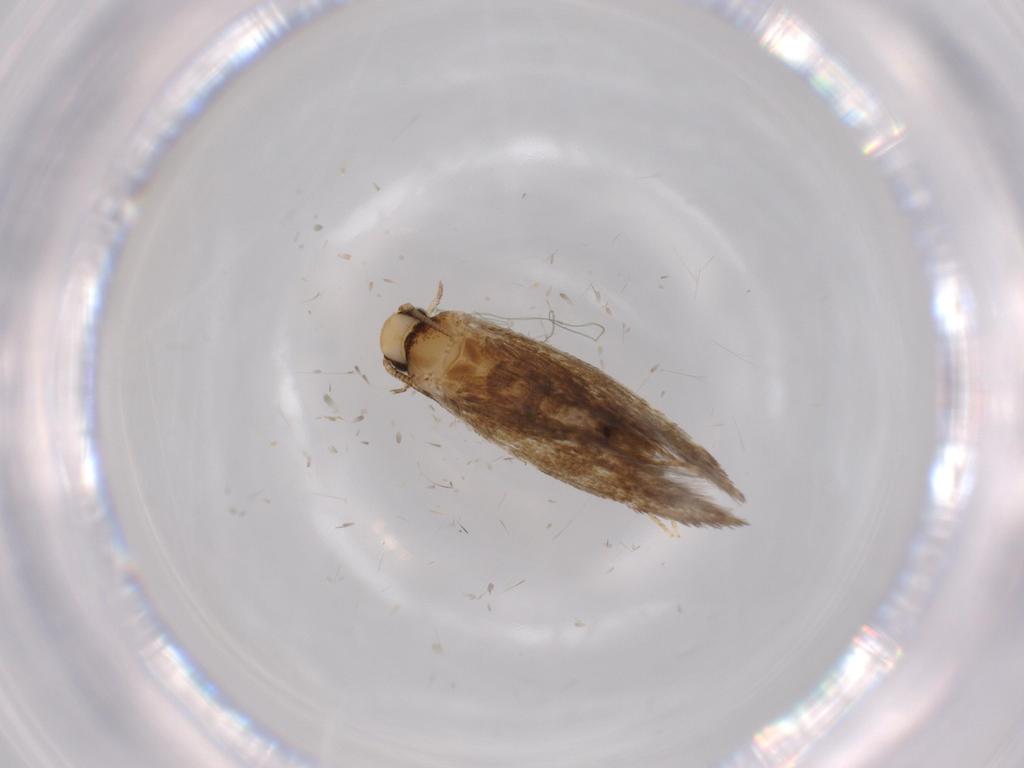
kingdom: Animalia
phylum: Arthropoda
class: Insecta
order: Lepidoptera
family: Tineidae
